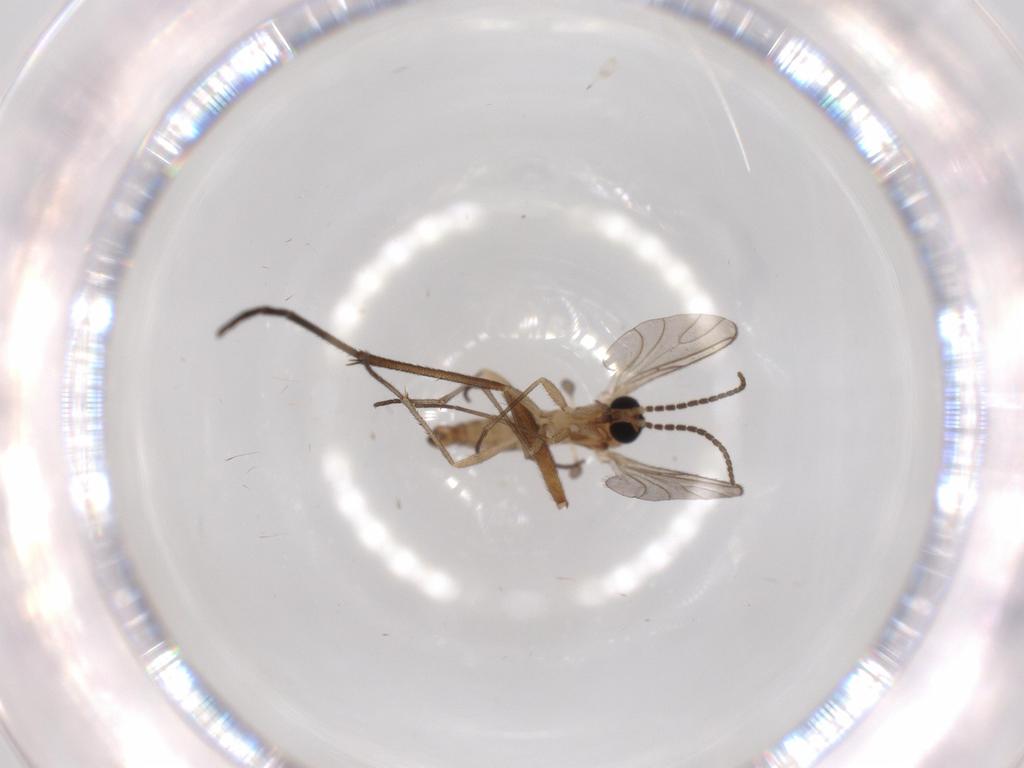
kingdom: Animalia
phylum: Arthropoda
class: Insecta
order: Diptera
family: Sciaridae
